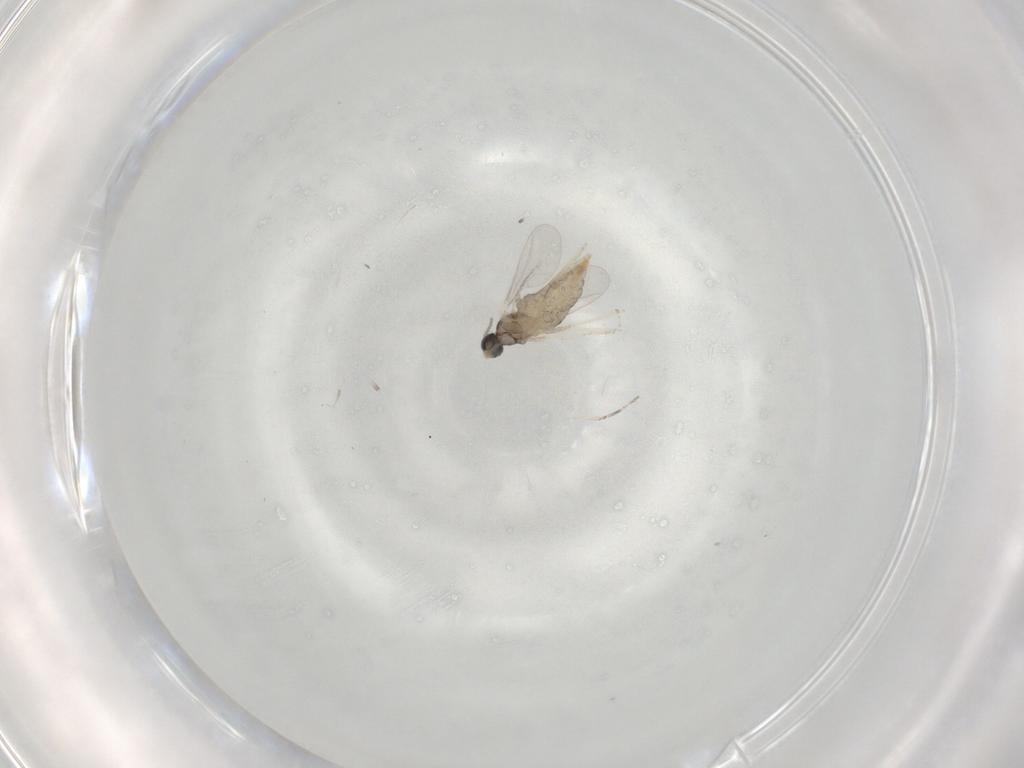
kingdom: Animalia
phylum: Arthropoda
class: Insecta
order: Diptera
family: Cecidomyiidae
